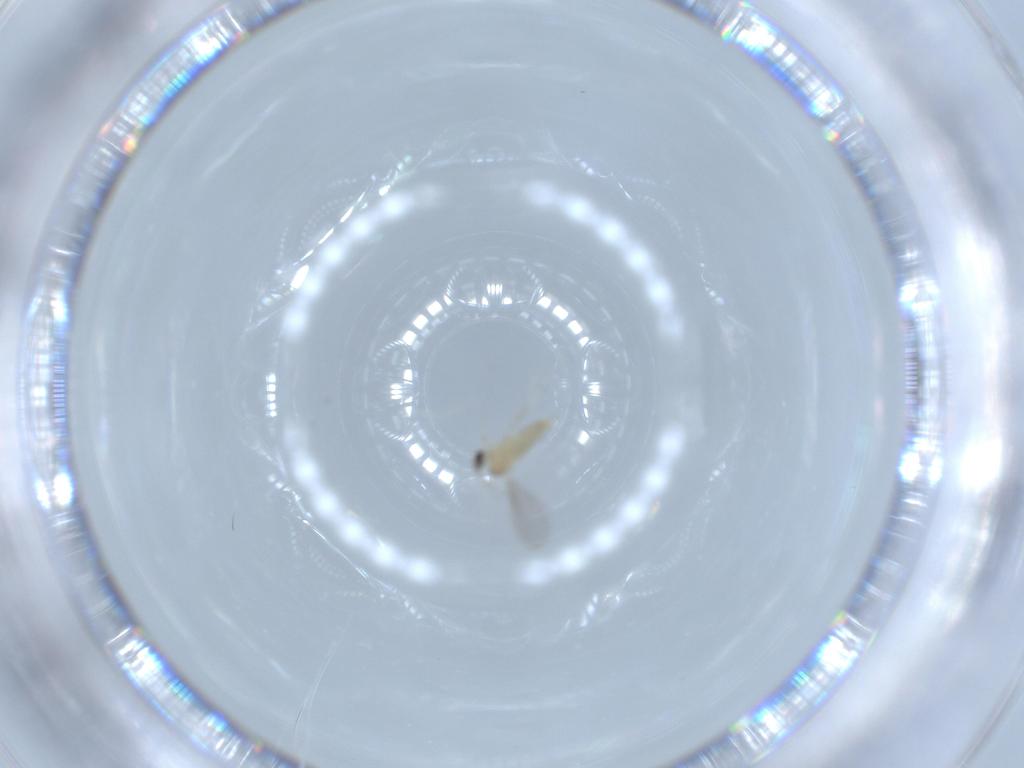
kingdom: Animalia
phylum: Arthropoda
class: Insecta
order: Diptera
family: Cecidomyiidae
